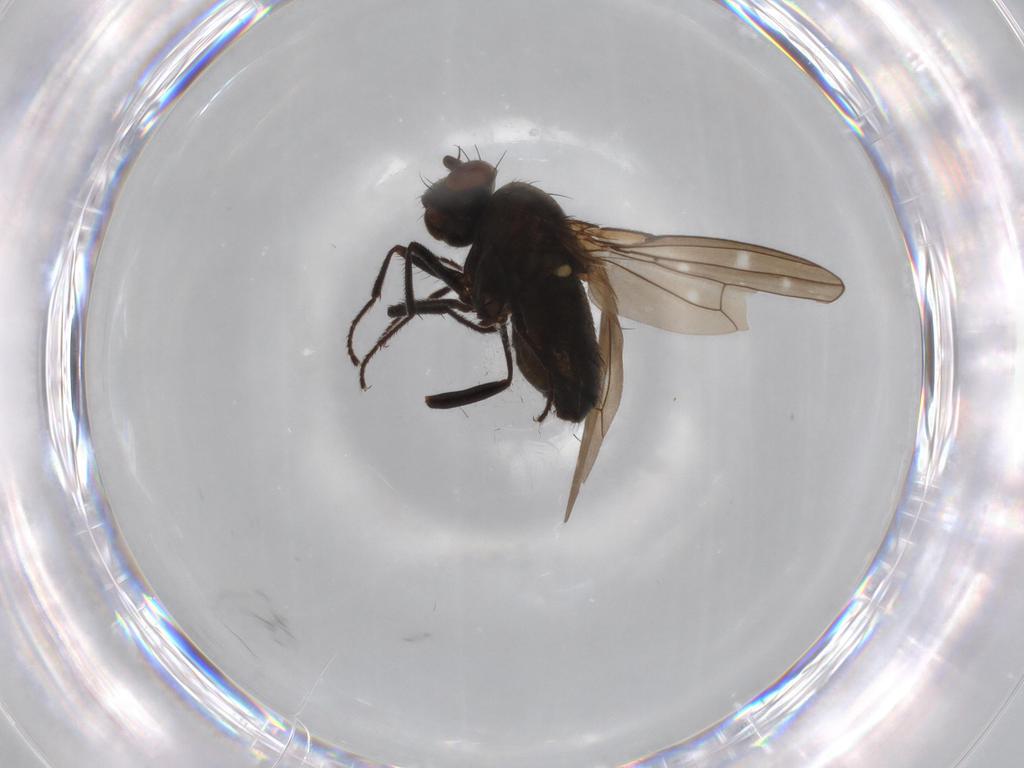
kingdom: Animalia
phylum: Arthropoda
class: Insecta
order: Diptera
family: Ephydridae
